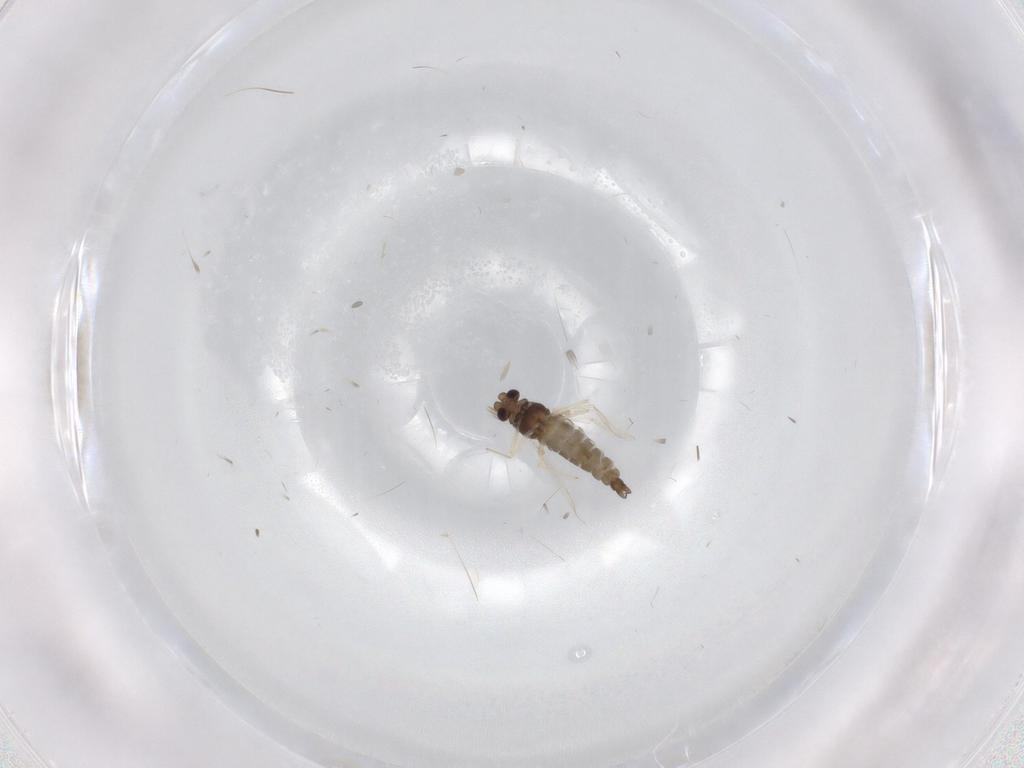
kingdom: Animalia
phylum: Arthropoda
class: Insecta
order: Diptera
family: Chironomidae
